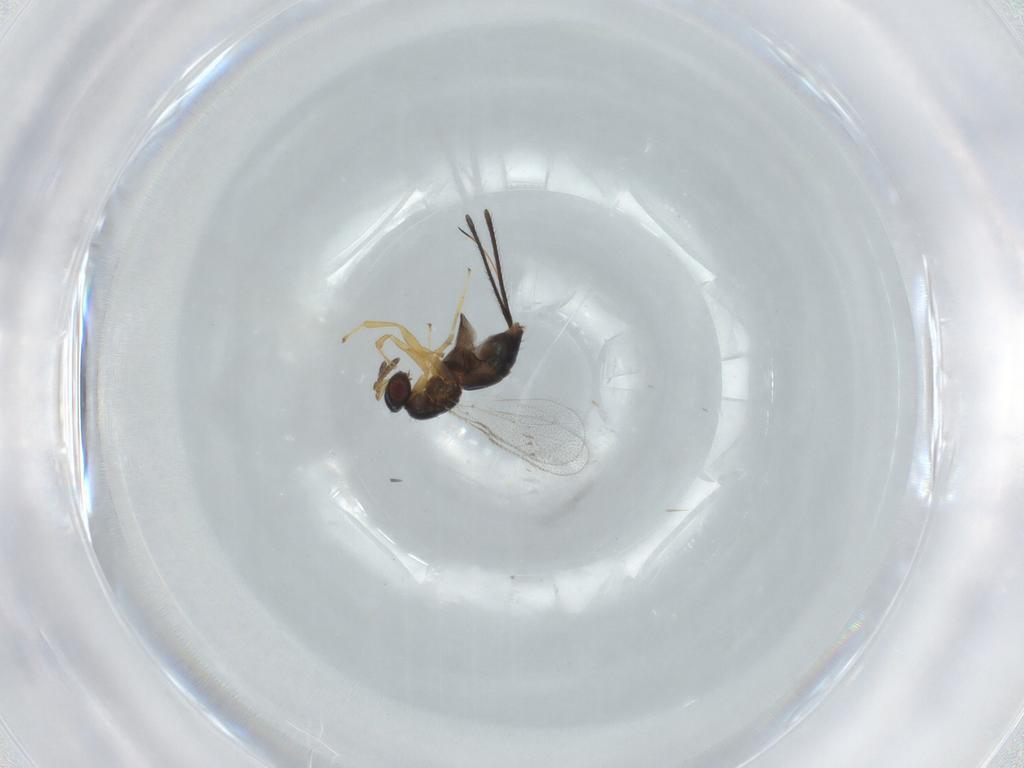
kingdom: Animalia
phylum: Arthropoda
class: Insecta
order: Hymenoptera
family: Torymidae
